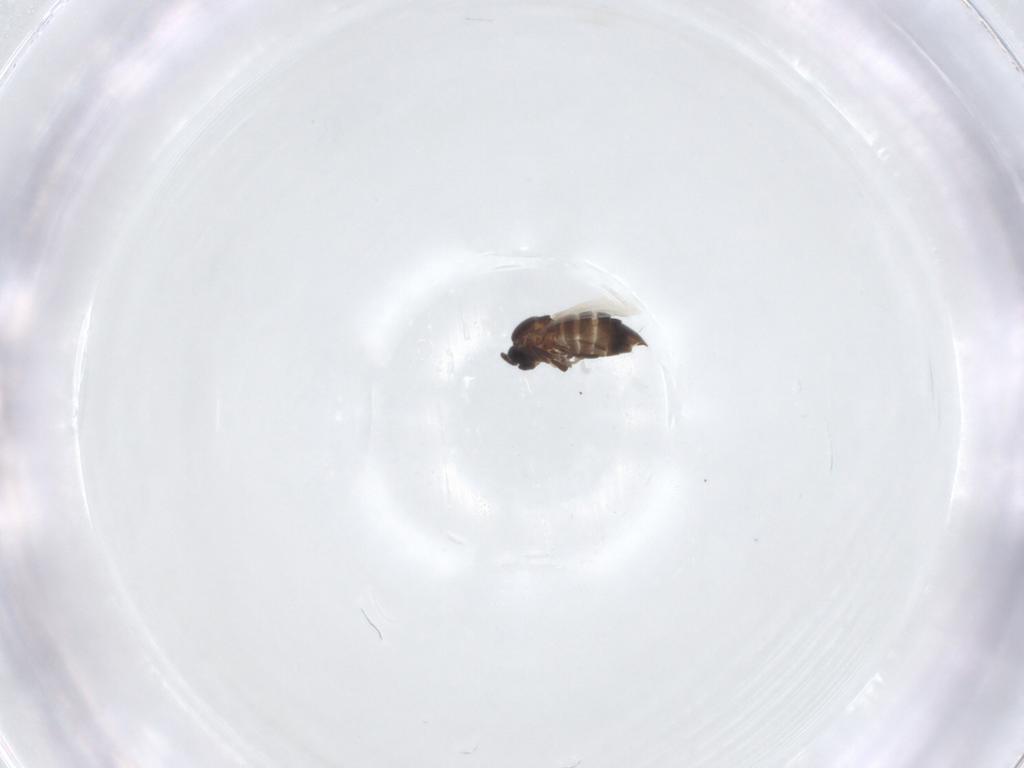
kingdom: Animalia
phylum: Arthropoda
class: Insecta
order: Diptera
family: Scatopsidae
